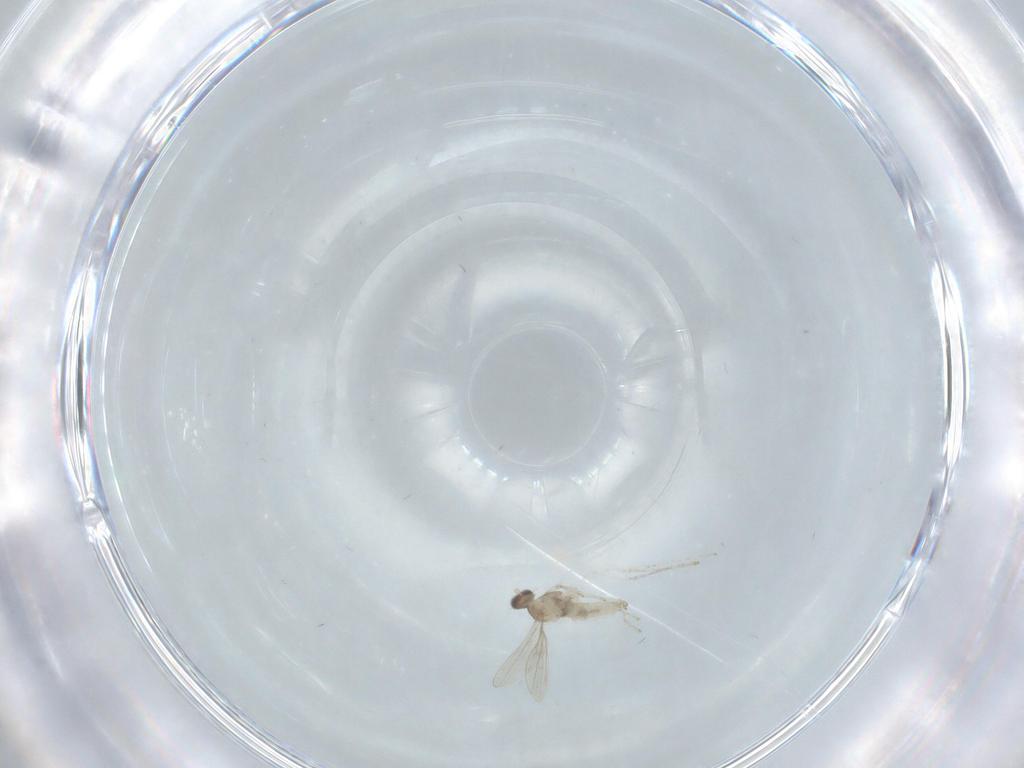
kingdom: Animalia
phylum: Arthropoda
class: Insecta
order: Diptera
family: Phoridae
